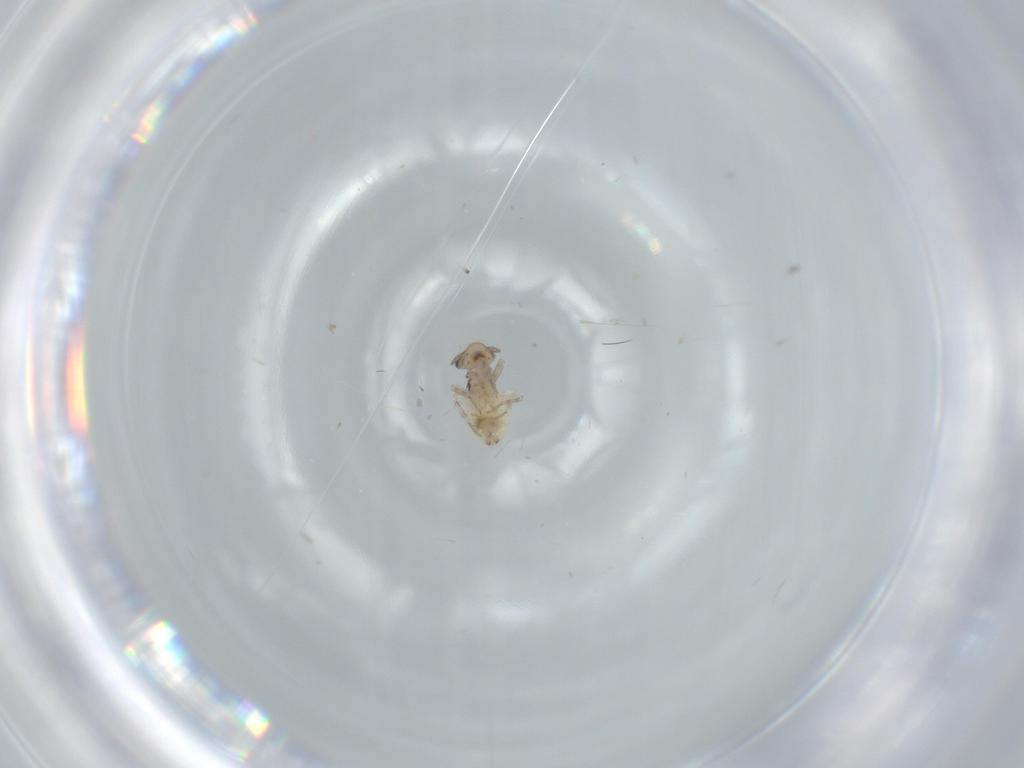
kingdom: Animalia
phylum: Arthropoda
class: Insecta
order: Psocodea
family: Lepidopsocidae
